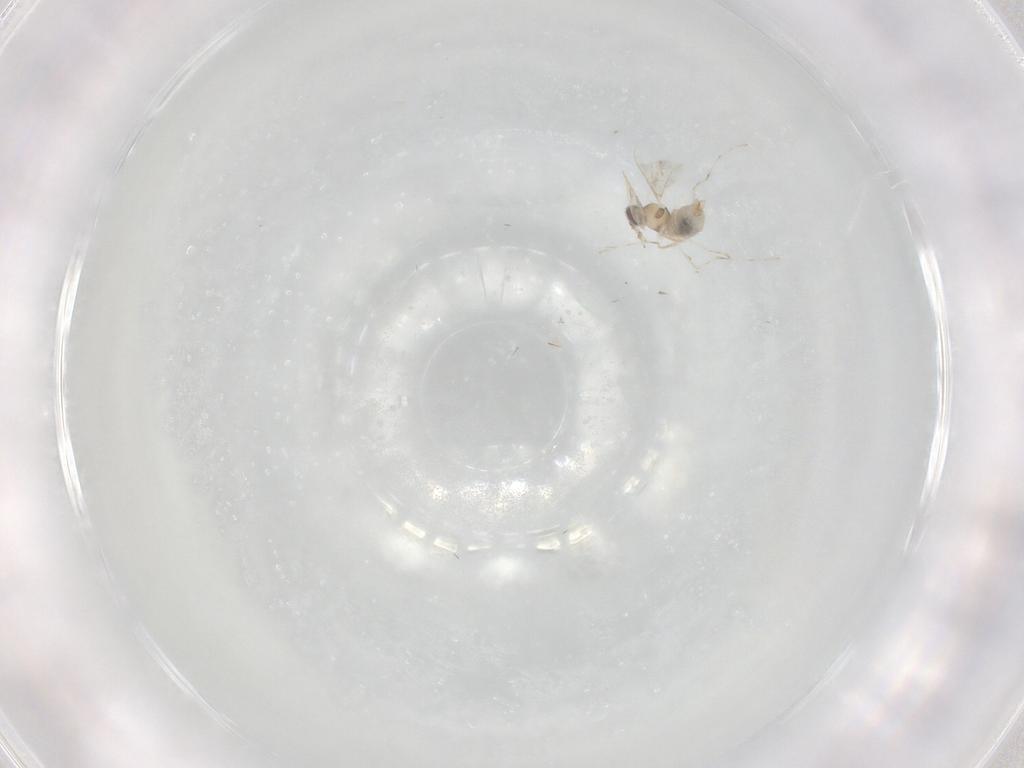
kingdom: Animalia
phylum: Arthropoda
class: Insecta
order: Diptera
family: Cecidomyiidae
